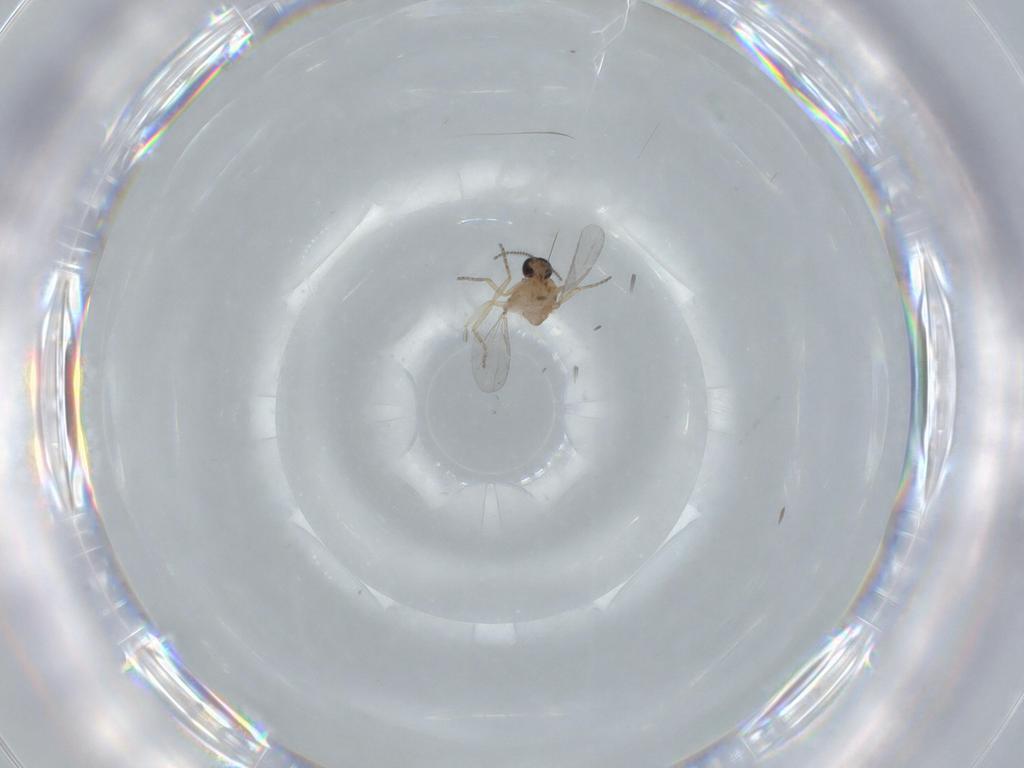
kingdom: Animalia
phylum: Arthropoda
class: Insecta
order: Diptera
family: Ceratopogonidae
